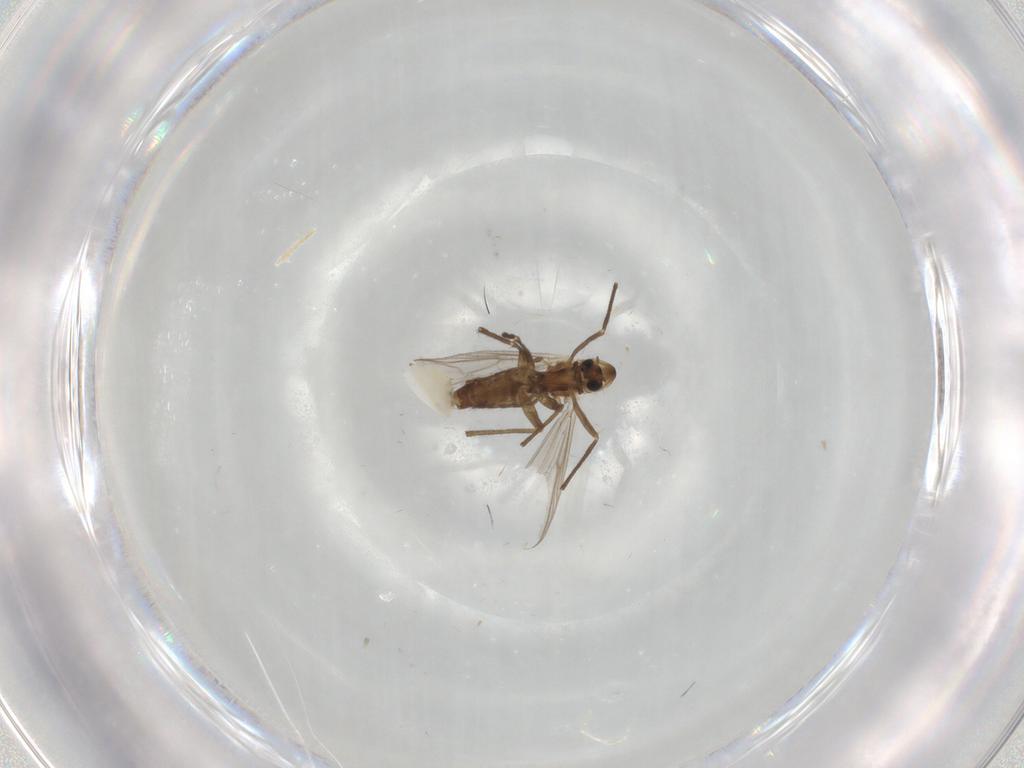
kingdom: Animalia
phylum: Arthropoda
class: Insecta
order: Diptera
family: Chironomidae
